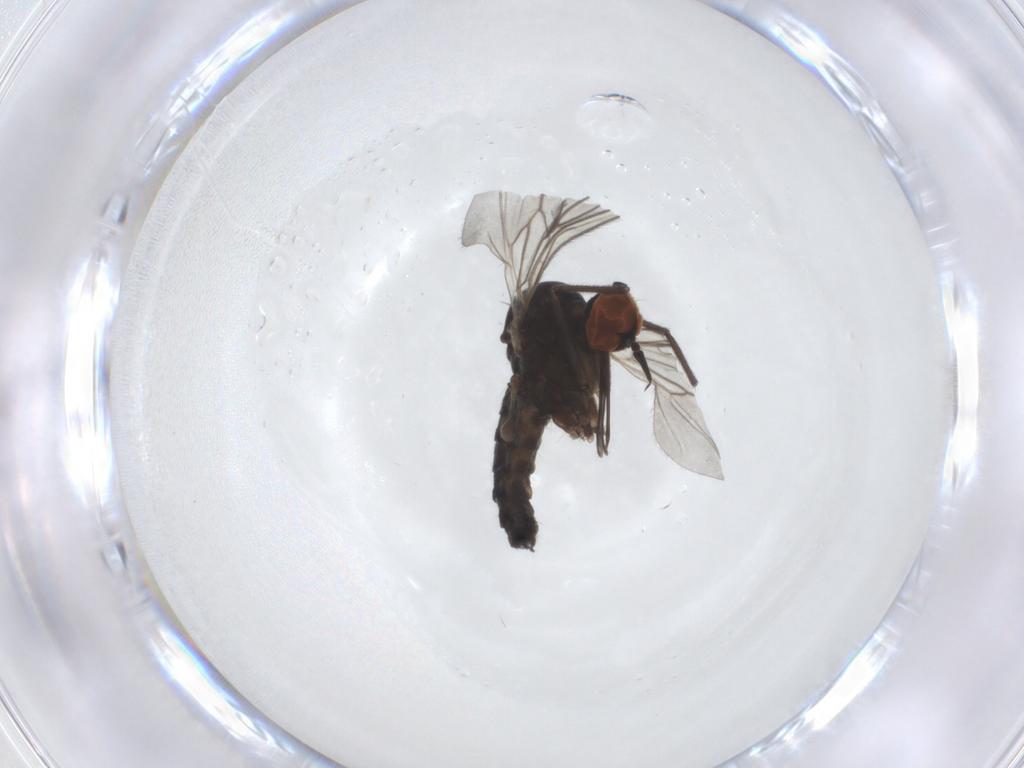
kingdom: Animalia
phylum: Arthropoda
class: Insecta
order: Diptera
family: Empididae
